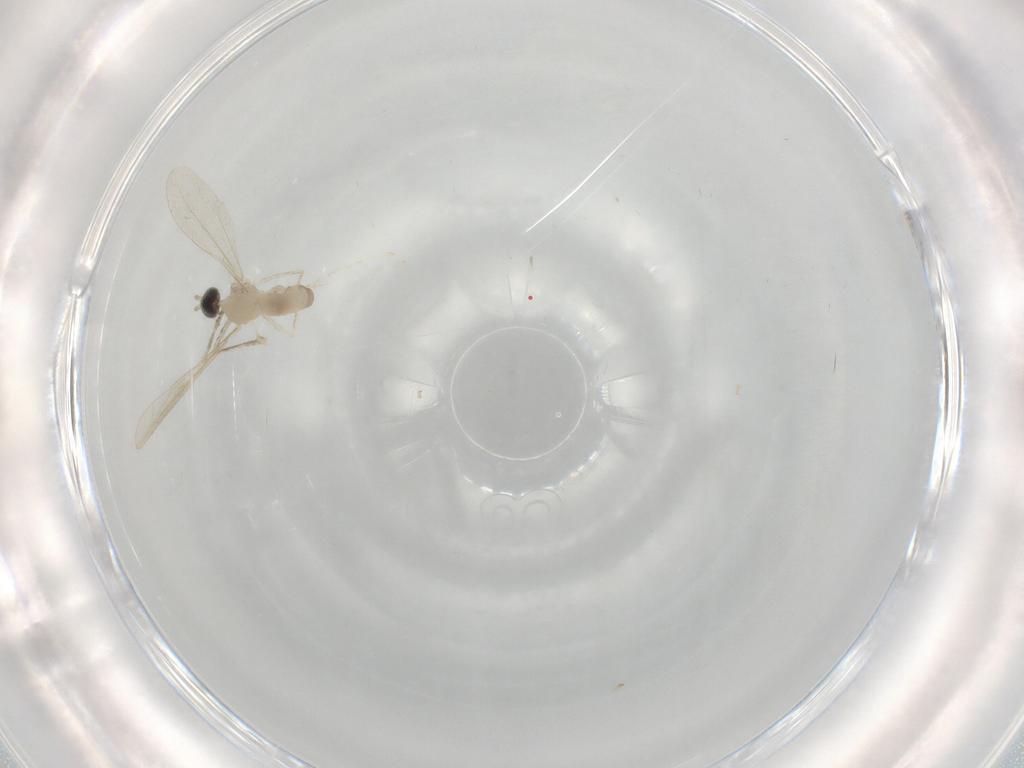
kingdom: Animalia
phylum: Arthropoda
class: Insecta
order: Diptera
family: Cecidomyiidae
